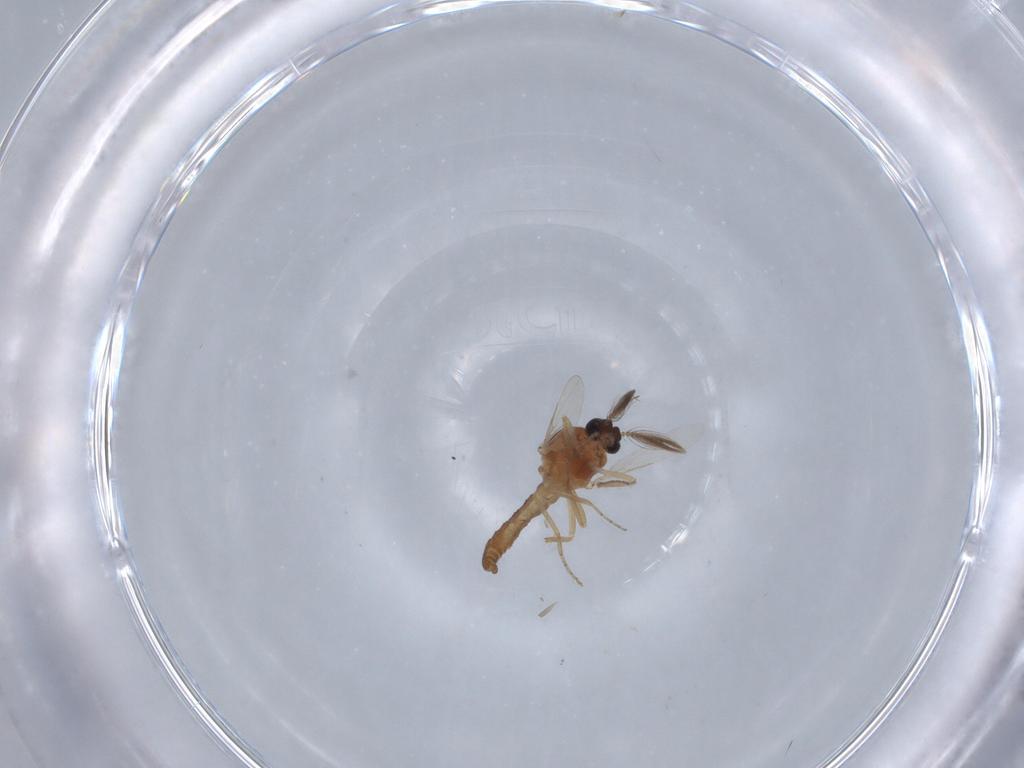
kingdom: Animalia
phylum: Arthropoda
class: Insecta
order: Diptera
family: Ceratopogonidae
